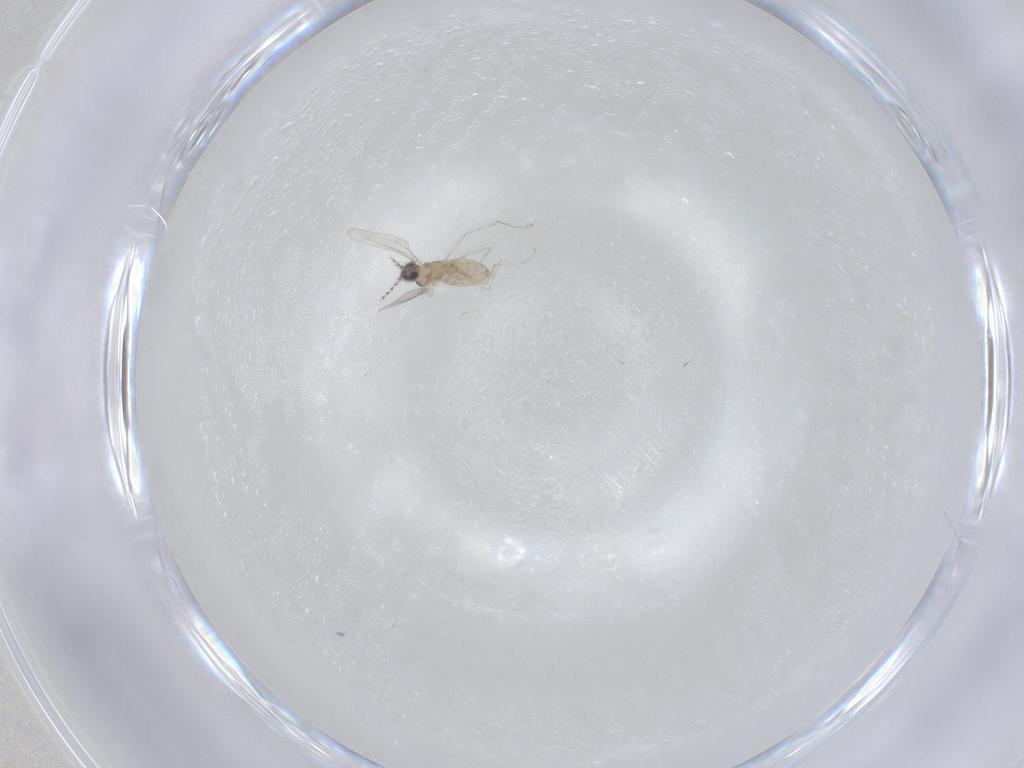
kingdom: Animalia
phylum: Arthropoda
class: Insecta
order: Diptera
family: Cecidomyiidae
